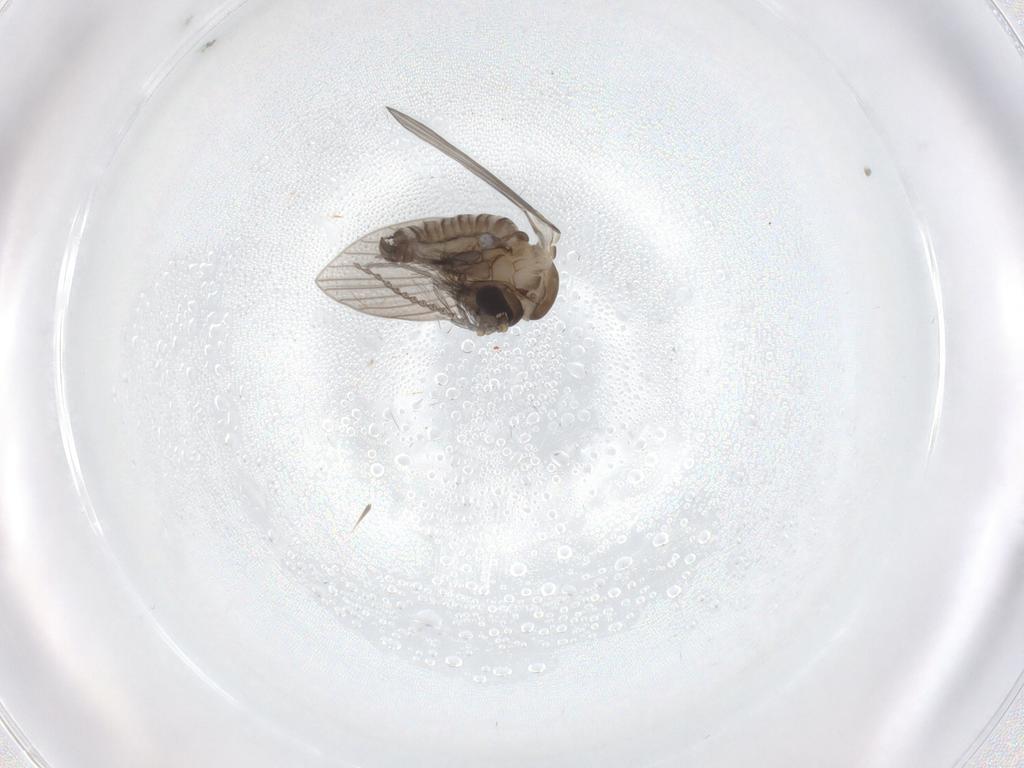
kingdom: Animalia
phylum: Arthropoda
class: Insecta
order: Diptera
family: Psychodidae
